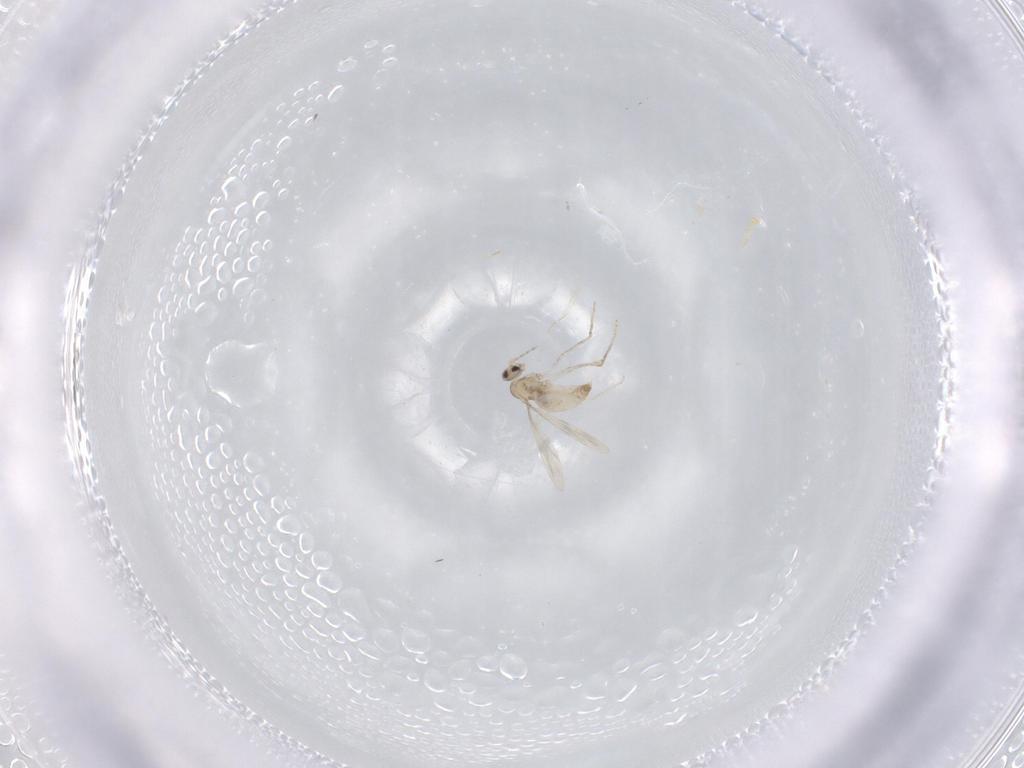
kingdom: Animalia
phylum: Arthropoda
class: Insecta
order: Diptera
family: Cecidomyiidae
